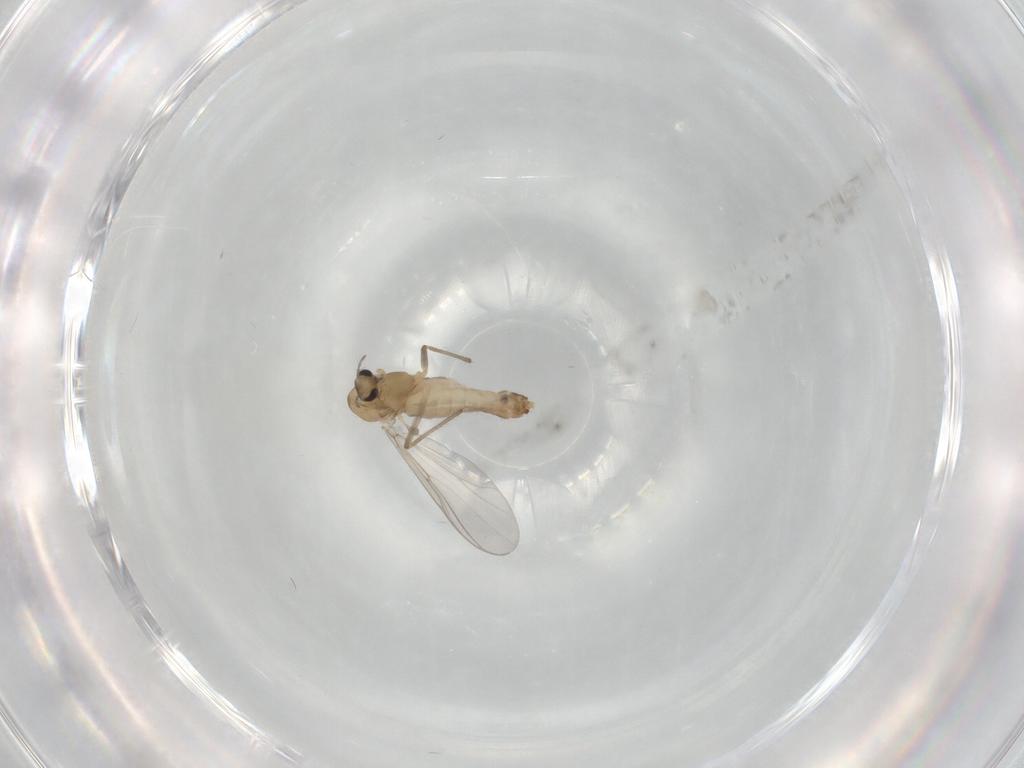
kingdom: Animalia
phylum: Arthropoda
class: Insecta
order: Diptera
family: Chironomidae
